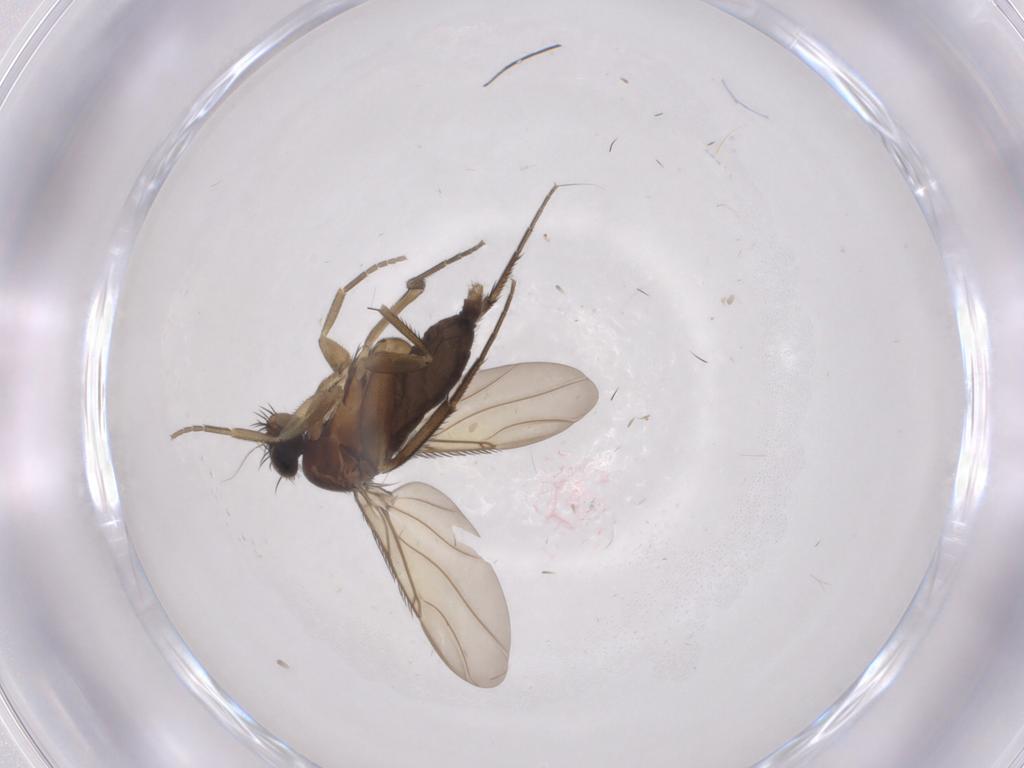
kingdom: Animalia
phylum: Arthropoda
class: Insecta
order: Diptera
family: Phoridae
